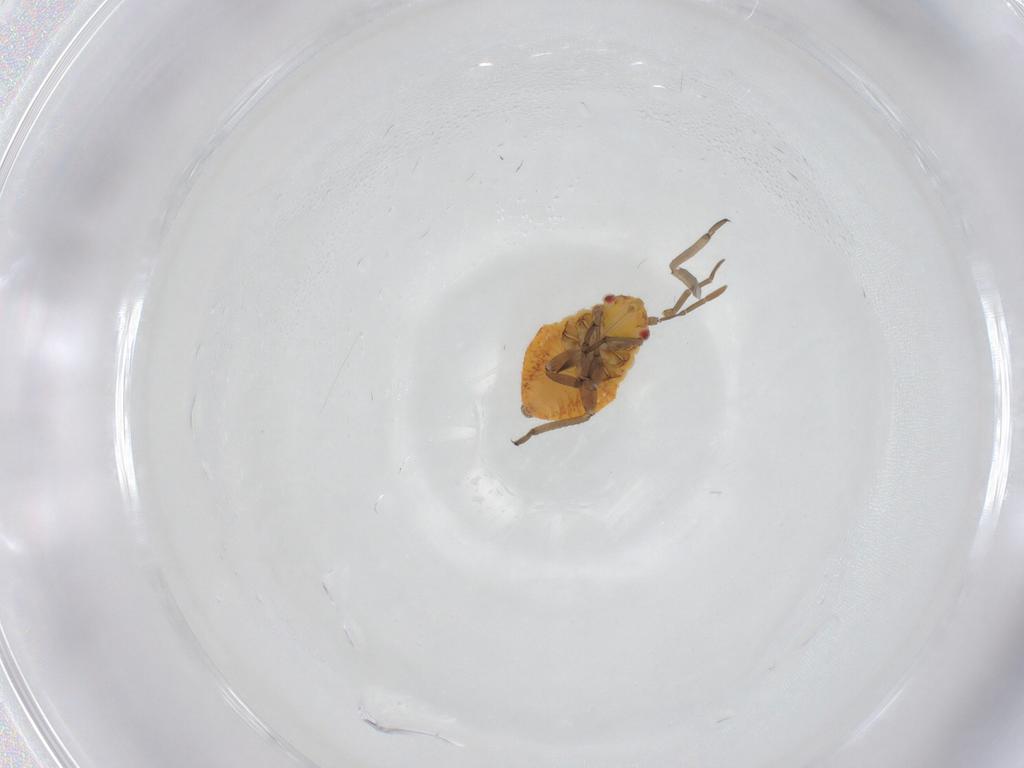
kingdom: Animalia
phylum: Arthropoda
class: Insecta
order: Hemiptera
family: Miridae
